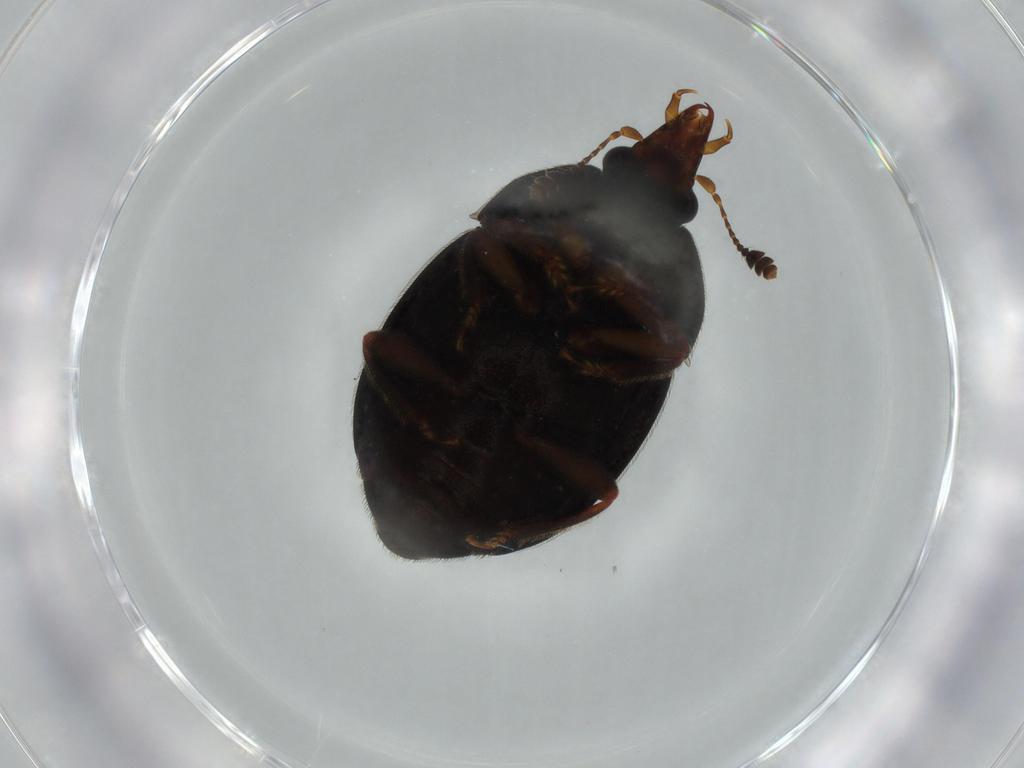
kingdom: Animalia
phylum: Arthropoda
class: Insecta
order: Coleoptera
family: Cybocephalidae
